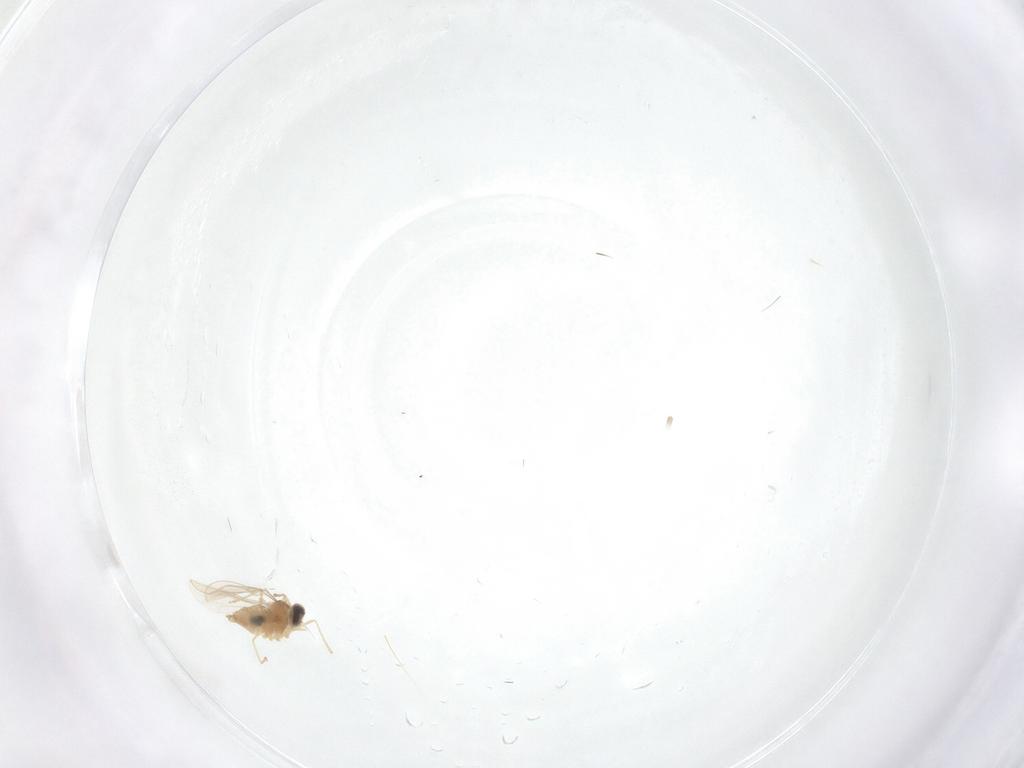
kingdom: Animalia
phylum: Arthropoda
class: Insecta
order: Diptera
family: Cecidomyiidae
